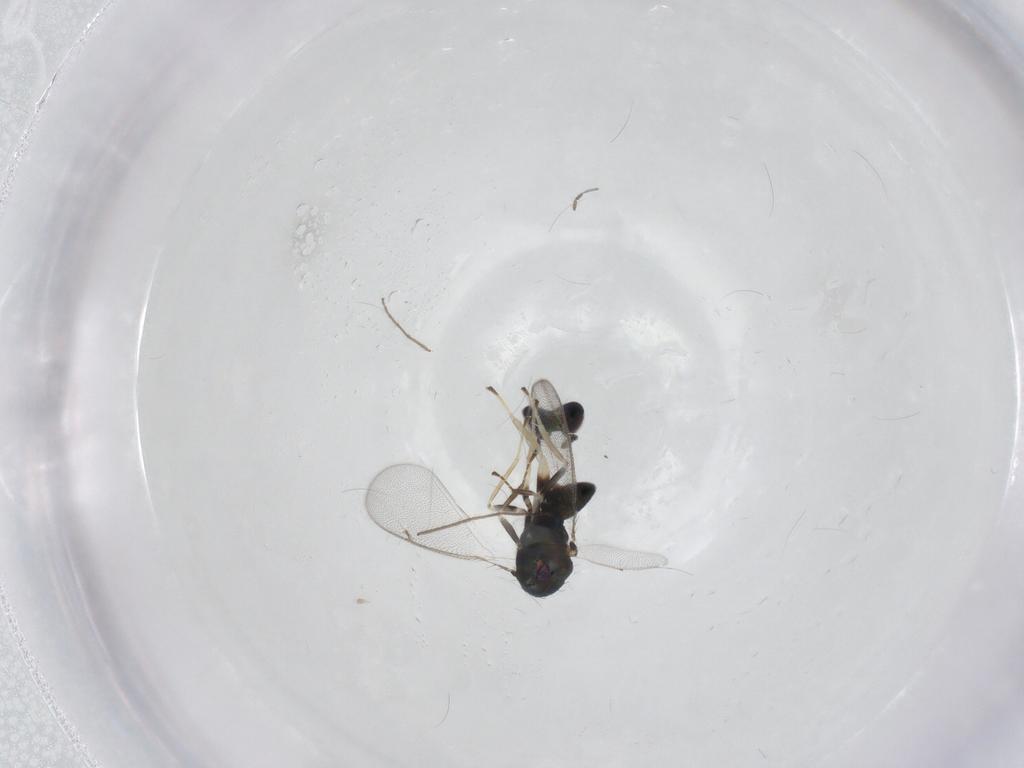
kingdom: Animalia
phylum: Arthropoda
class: Insecta
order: Hymenoptera
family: Eulophidae
